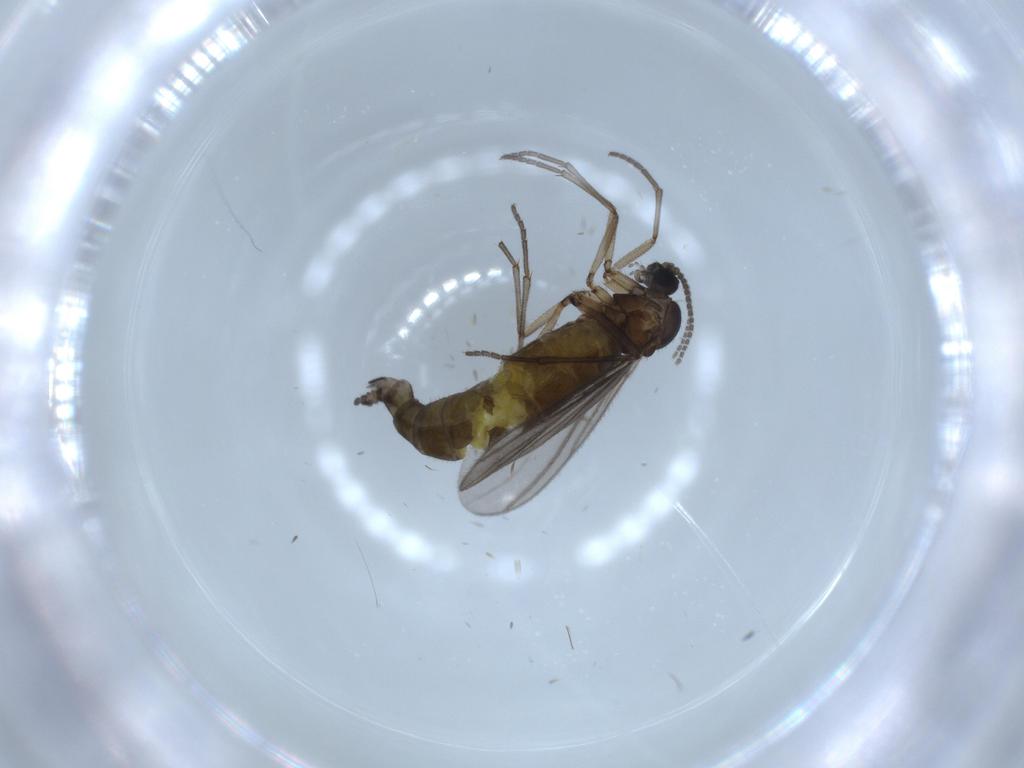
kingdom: Animalia
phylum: Arthropoda
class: Insecta
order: Diptera
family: Sciaridae
